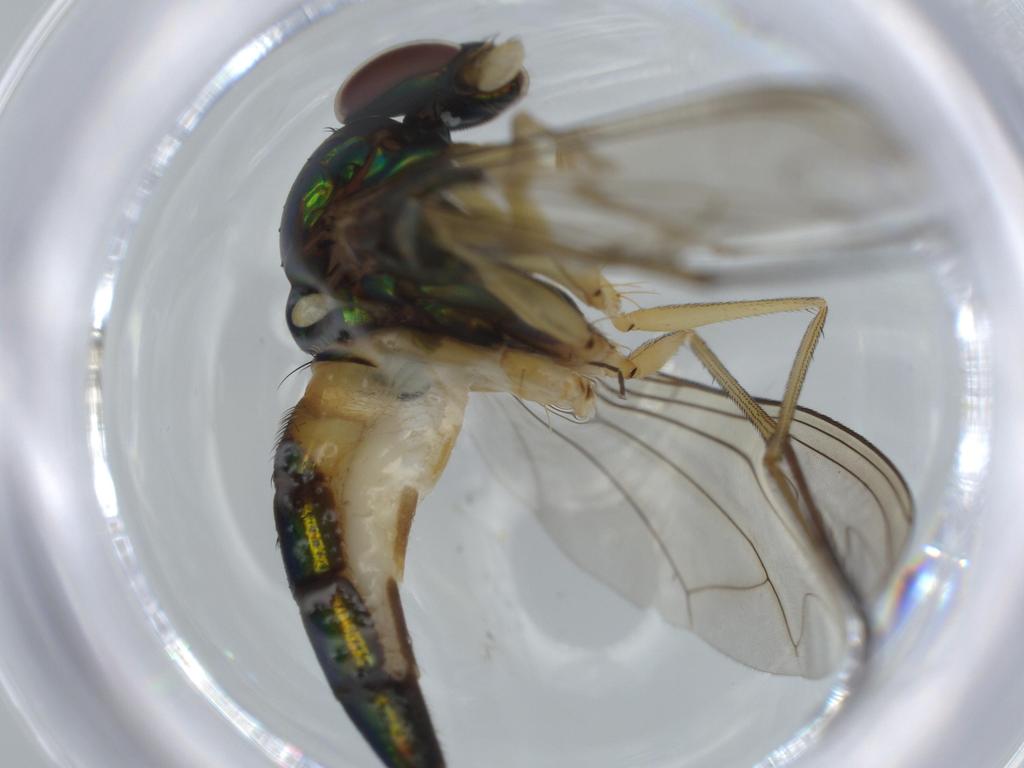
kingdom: Animalia
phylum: Arthropoda
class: Insecta
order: Diptera
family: Dolichopodidae
